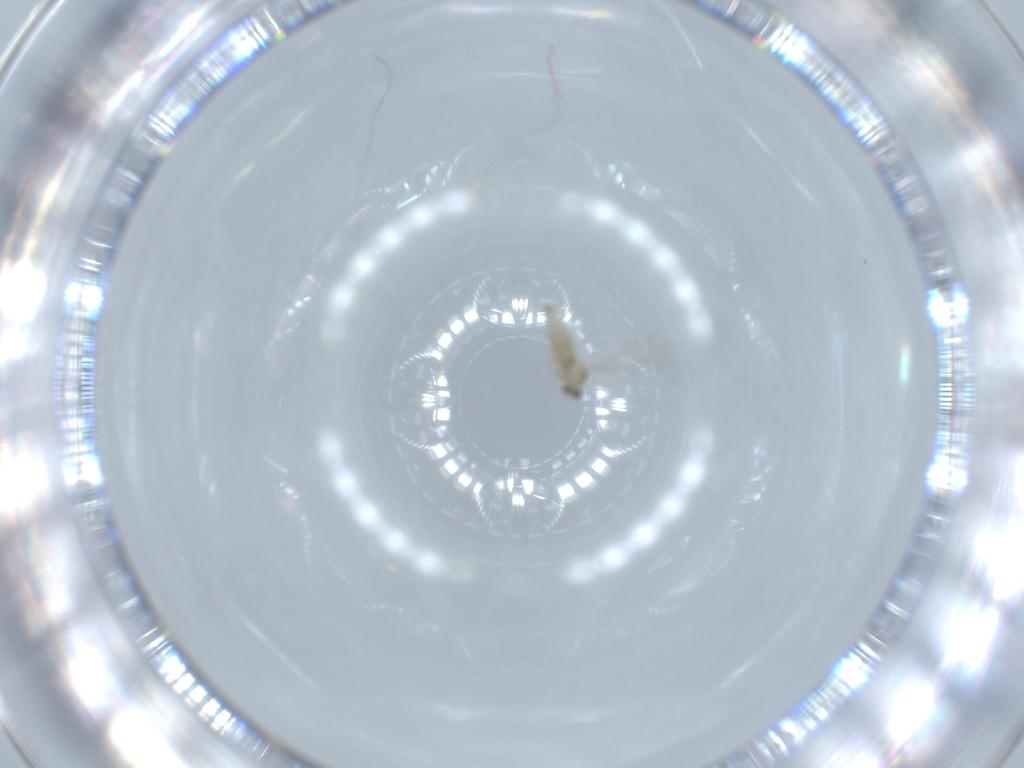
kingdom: Animalia
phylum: Arthropoda
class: Insecta
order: Diptera
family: Cecidomyiidae
